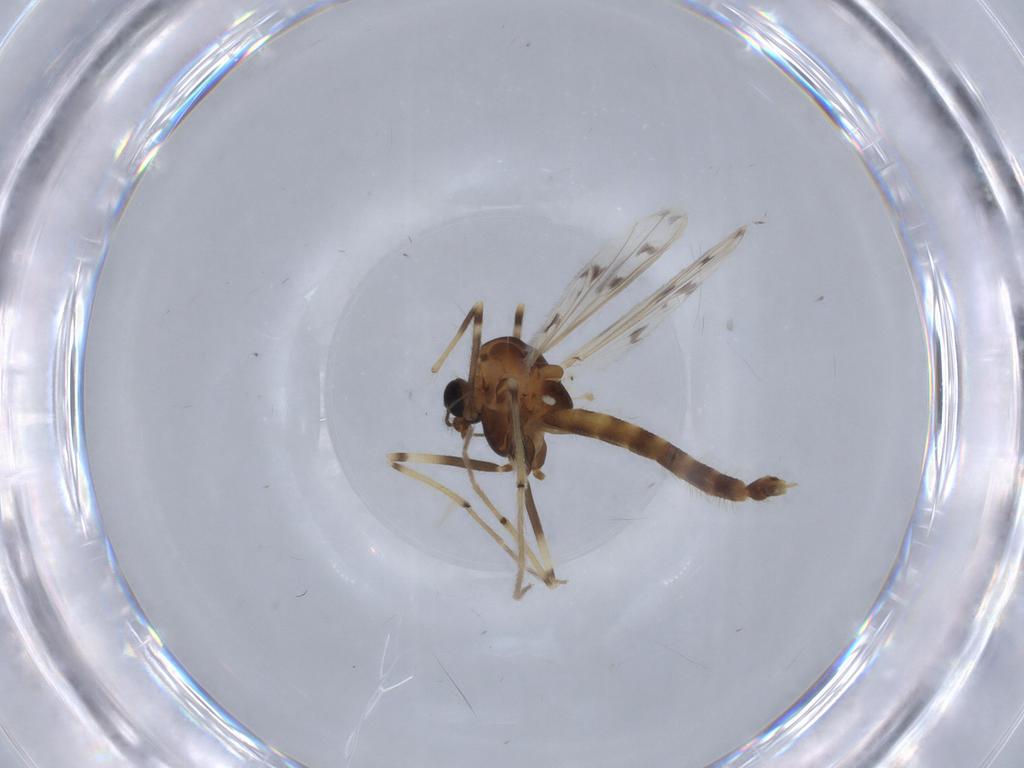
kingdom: Animalia
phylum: Arthropoda
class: Insecta
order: Diptera
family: Chironomidae
